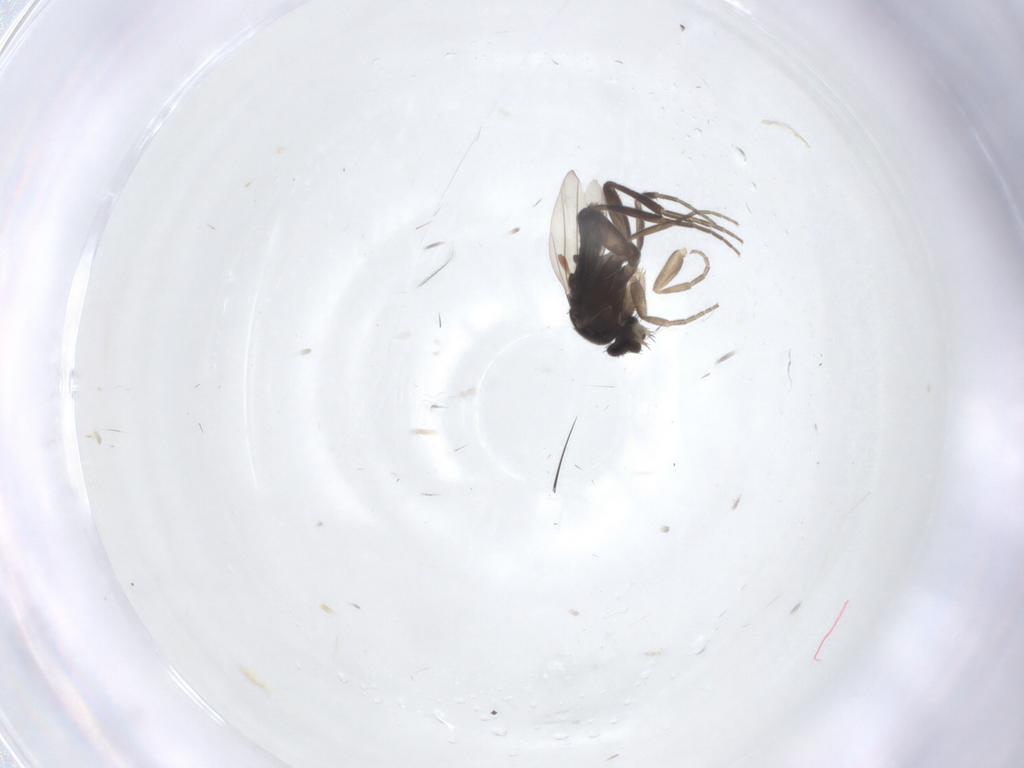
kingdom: Animalia
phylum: Arthropoda
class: Insecta
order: Diptera
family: Phoridae
